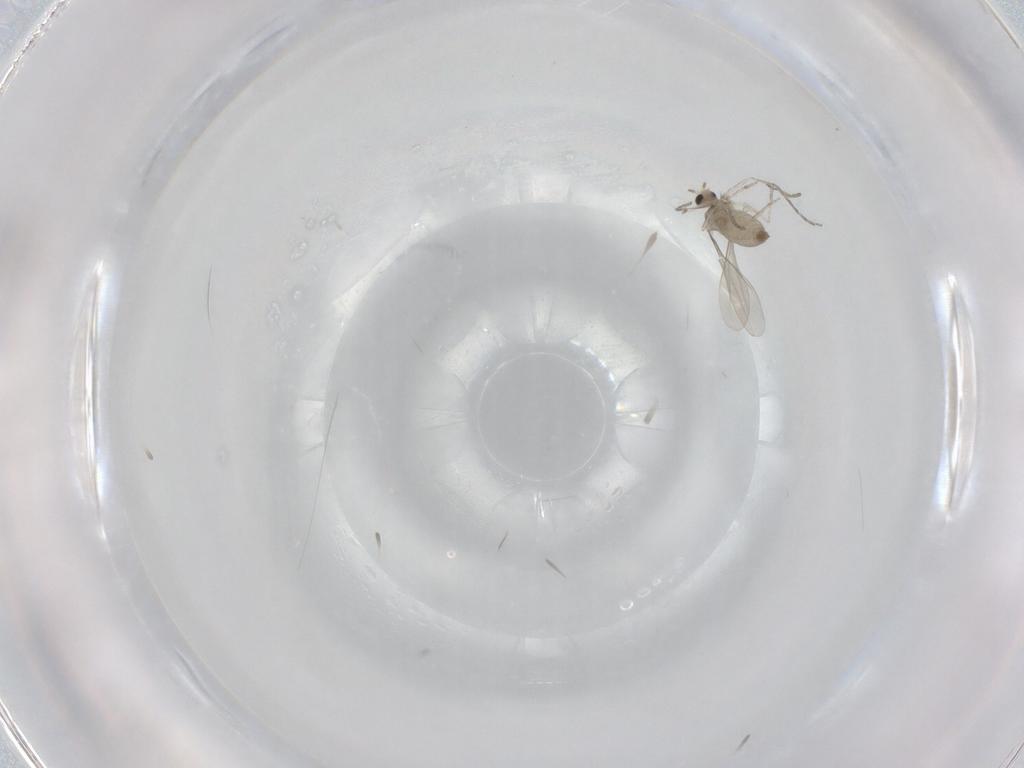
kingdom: Animalia
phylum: Arthropoda
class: Insecta
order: Diptera
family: Cecidomyiidae
